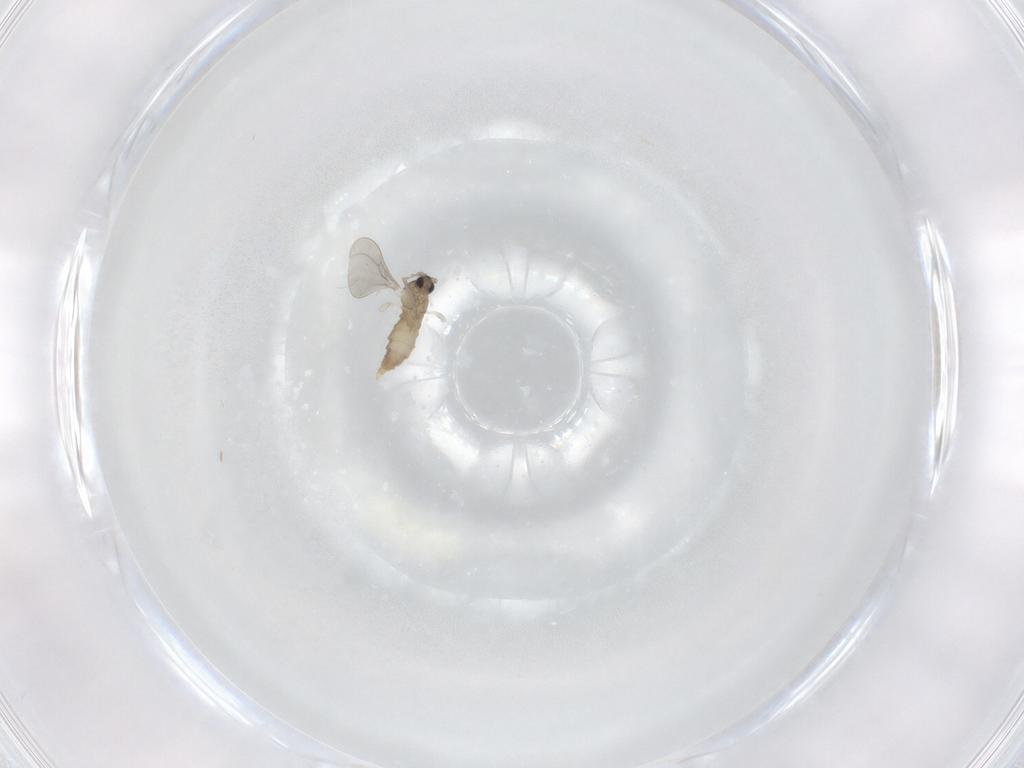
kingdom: Animalia
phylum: Arthropoda
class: Insecta
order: Diptera
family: Cecidomyiidae
